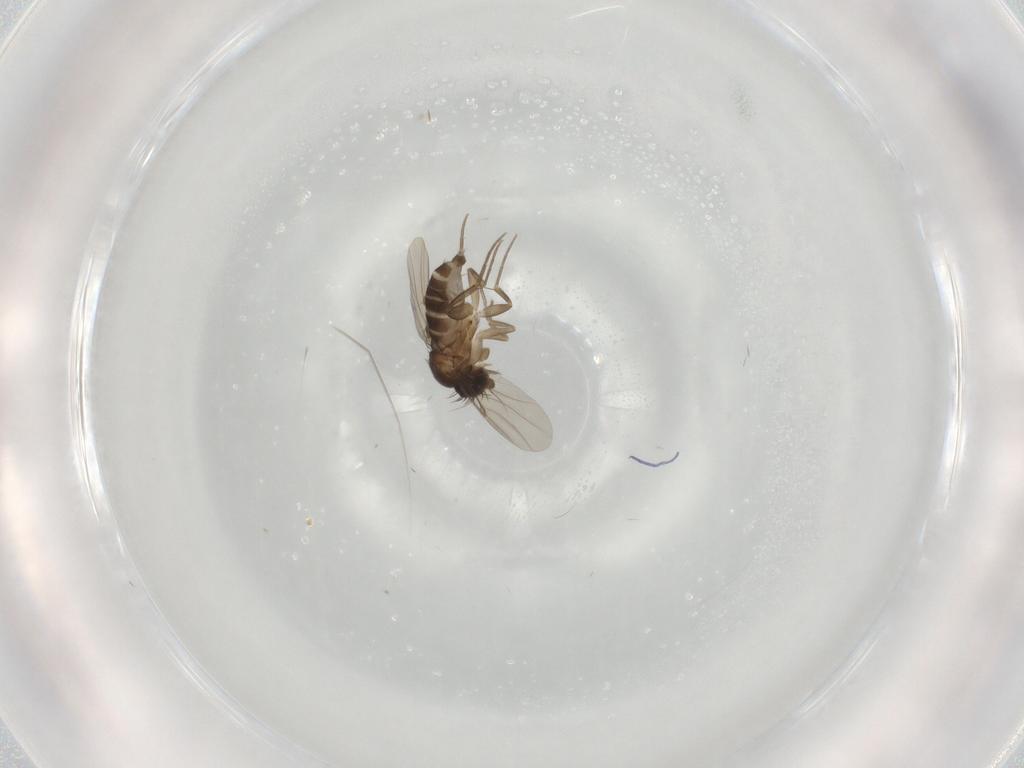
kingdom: Animalia
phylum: Arthropoda
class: Insecta
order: Diptera
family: Phoridae
